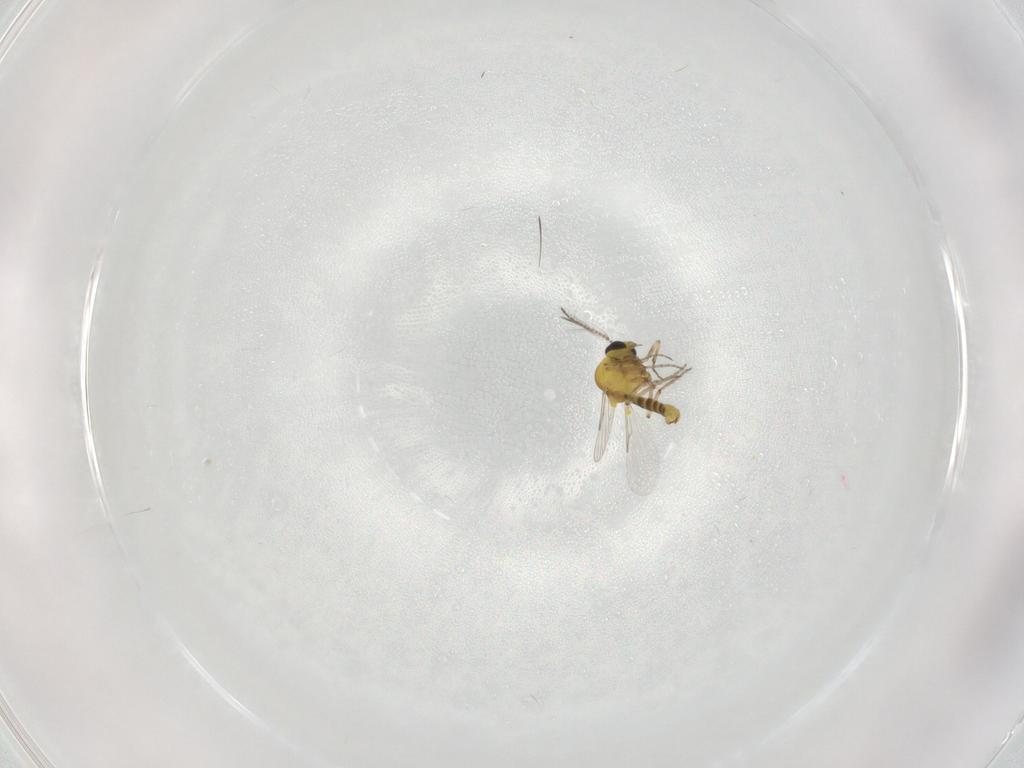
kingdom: Animalia
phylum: Arthropoda
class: Insecta
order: Diptera
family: Ceratopogonidae
